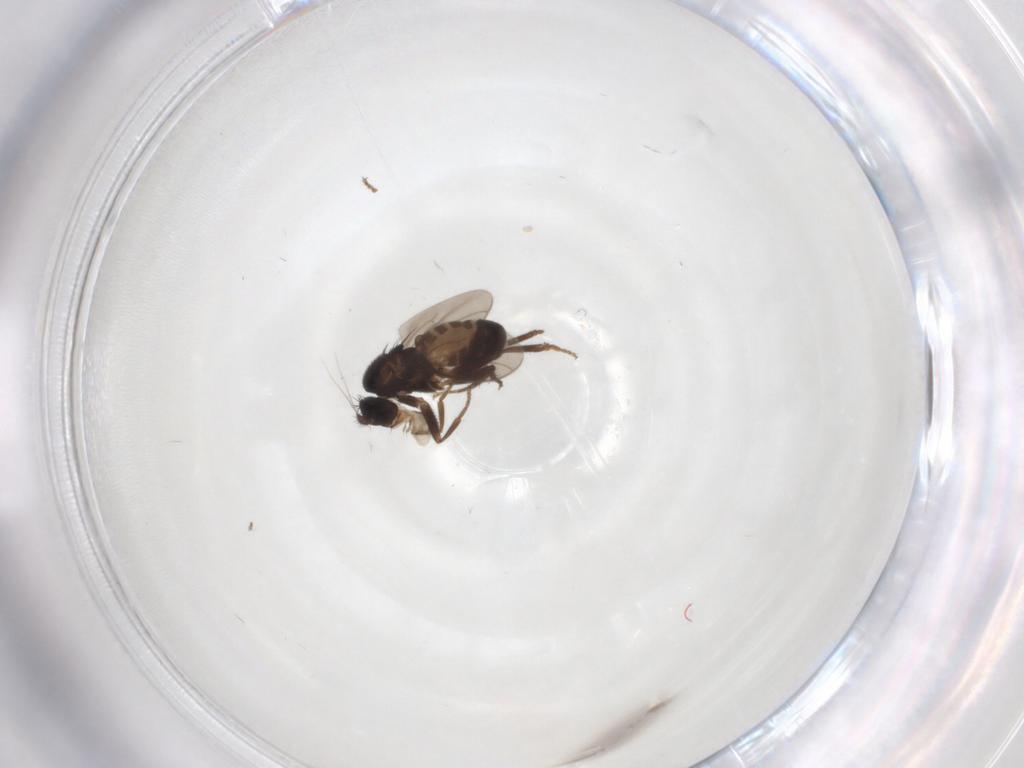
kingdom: Animalia
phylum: Arthropoda
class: Insecta
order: Diptera
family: Sphaeroceridae
